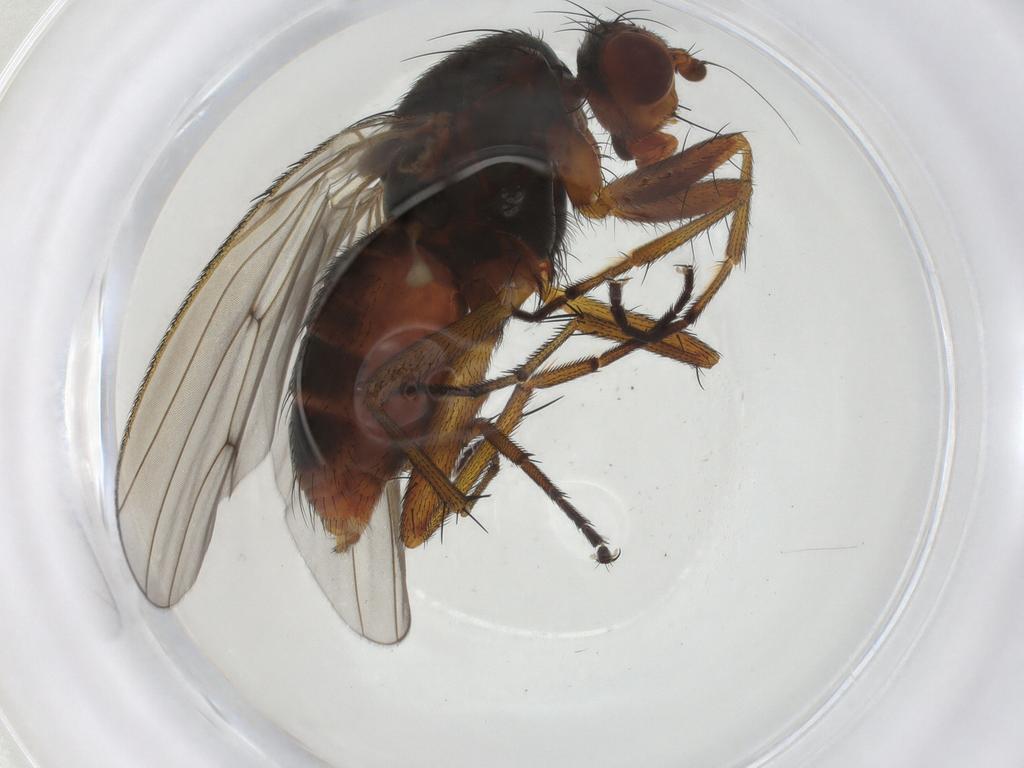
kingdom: Animalia
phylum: Arthropoda
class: Insecta
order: Diptera
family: Heleomyzidae
